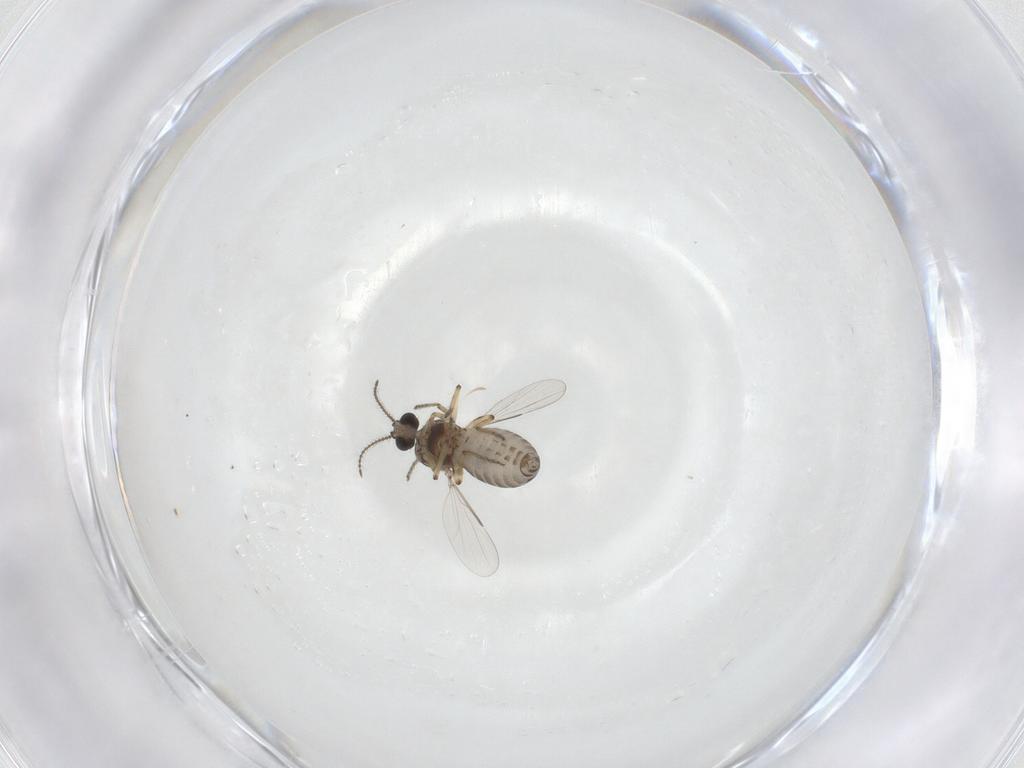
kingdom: Animalia
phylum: Arthropoda
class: Insecta
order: Diptera
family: Ceratopogonidae
